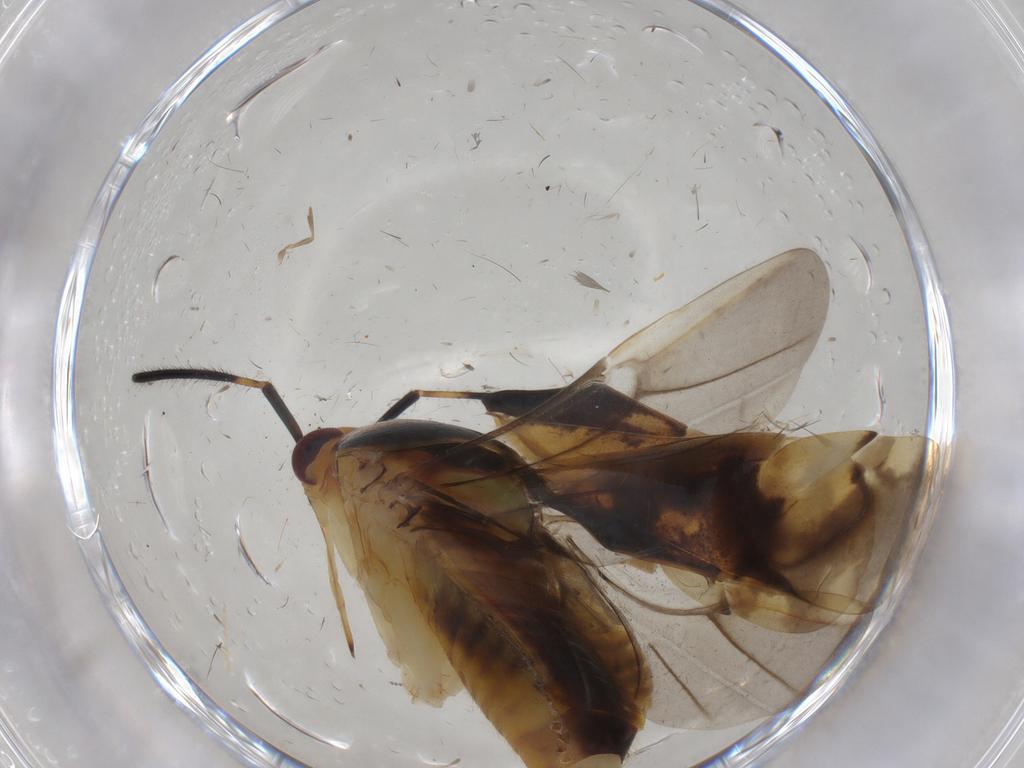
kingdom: Animalia
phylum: Arthropoda
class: Insecta
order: Hemiptera
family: Miridae
